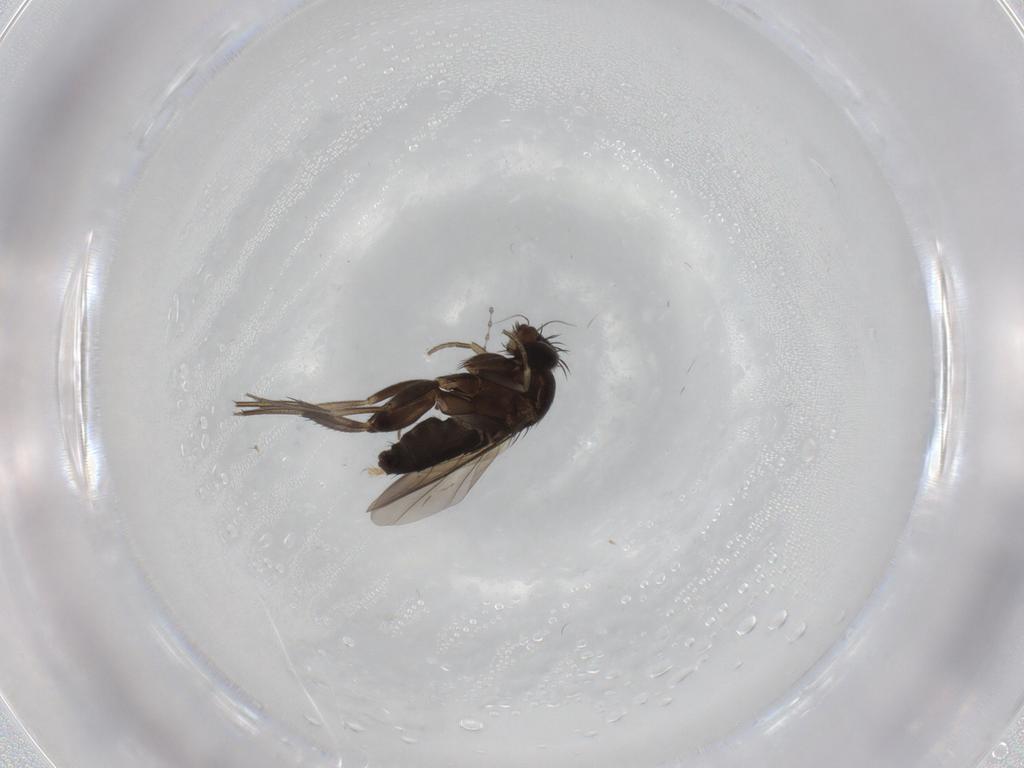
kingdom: Animalia
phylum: Arthropoda
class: Insecta
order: Diptera
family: Phoridae
